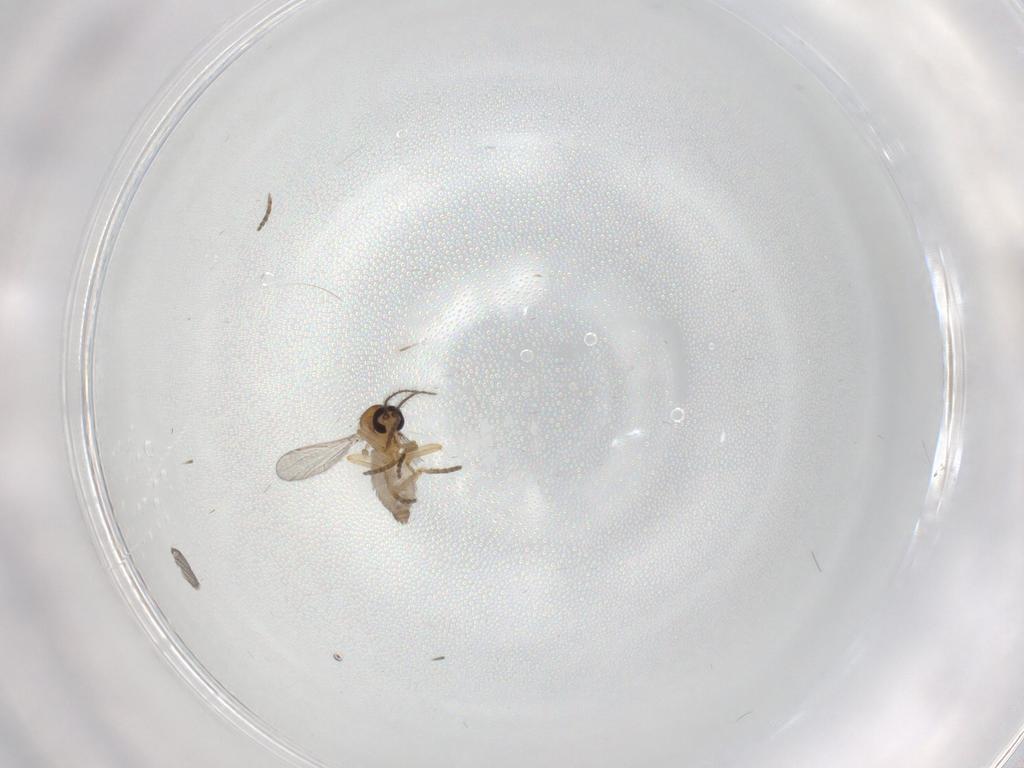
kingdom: Animalia
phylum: Arthropoda
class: Insecta
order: Diptera
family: Ceratopogonidae
